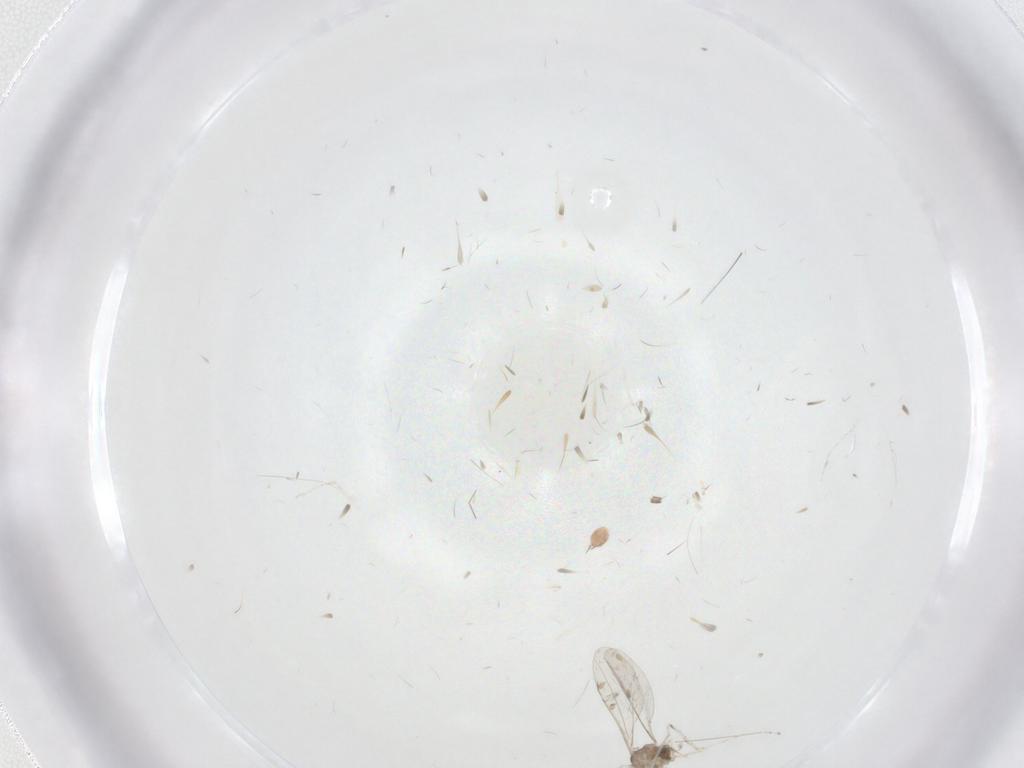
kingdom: Animalia
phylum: Arthropoda
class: Insecta
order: Diptera
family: Cecidomyiidae
